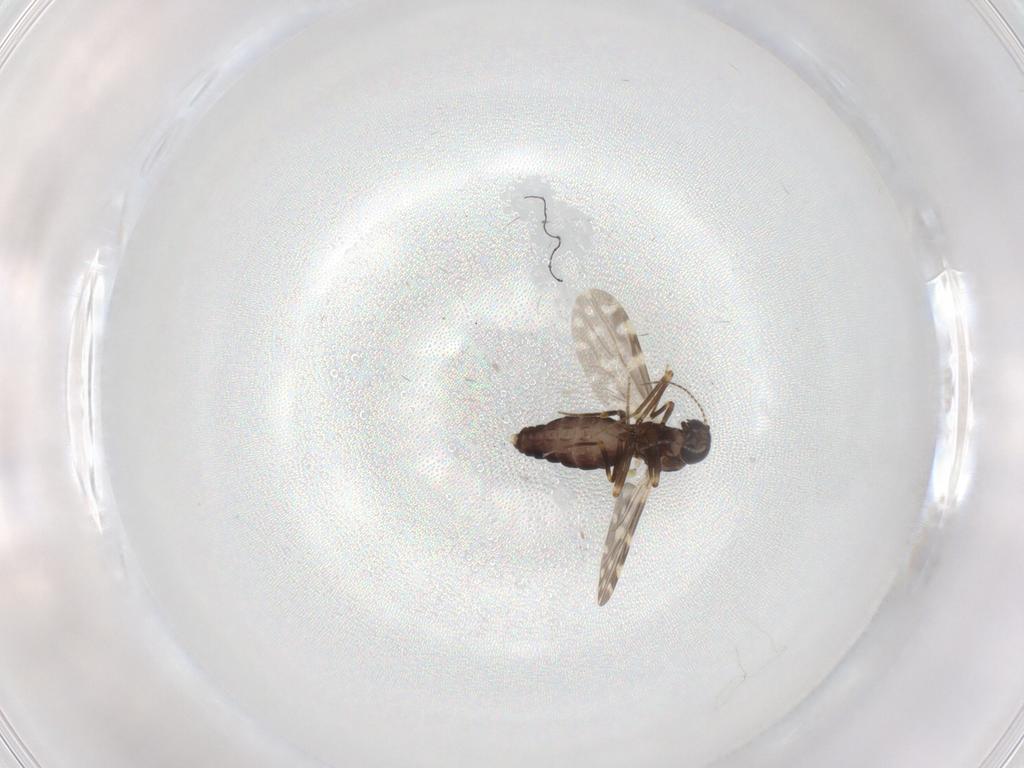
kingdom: Animalia
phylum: Arthropoda
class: Insecta
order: Diptera
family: Ceratopogonidae
